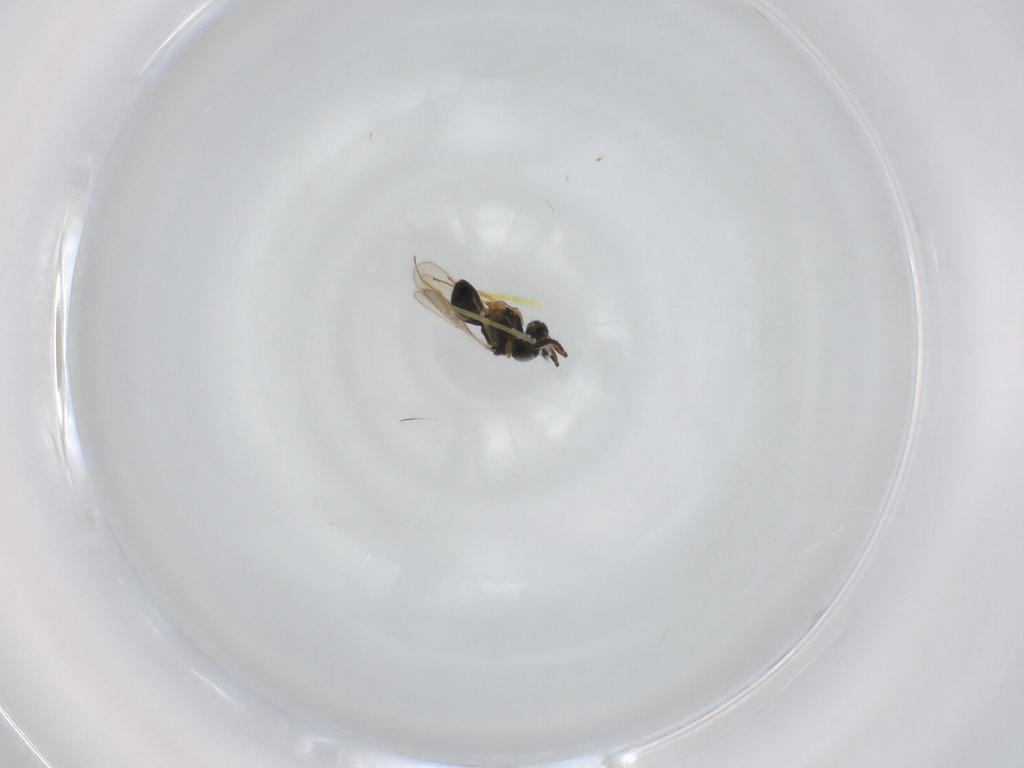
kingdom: Animalia
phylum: Arthropoda
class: Insecta
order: Hymenoptera
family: Scelionidae
